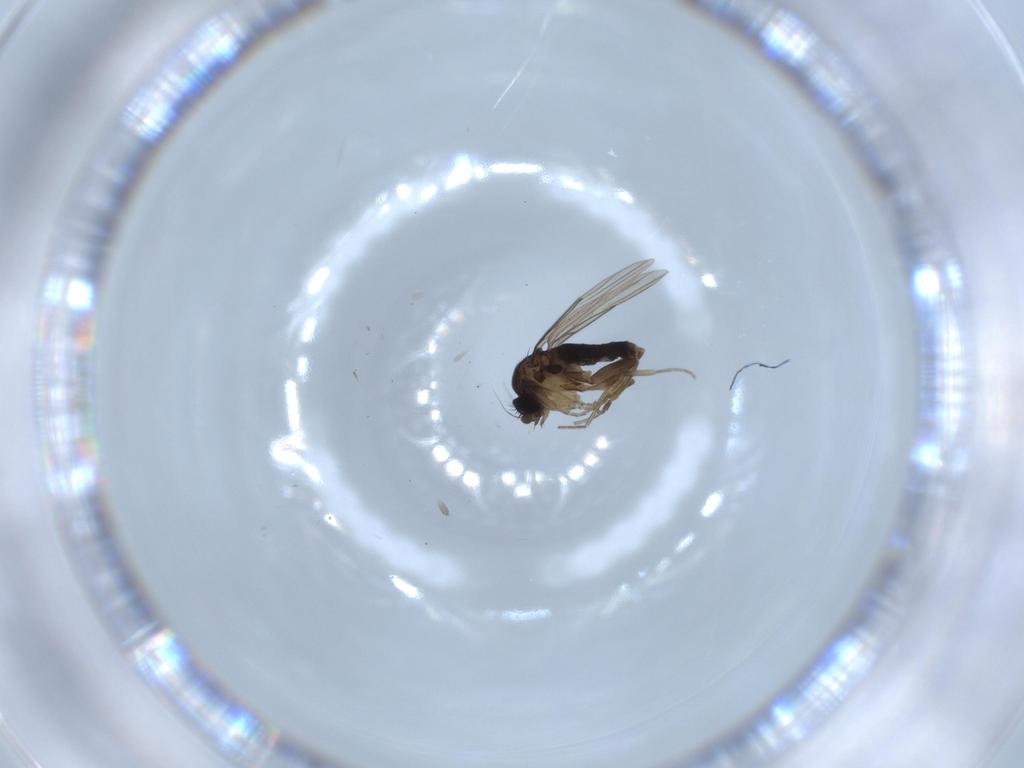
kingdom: Animalia
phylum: Arthropoda
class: Insecta
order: Diptera
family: Phoridae
